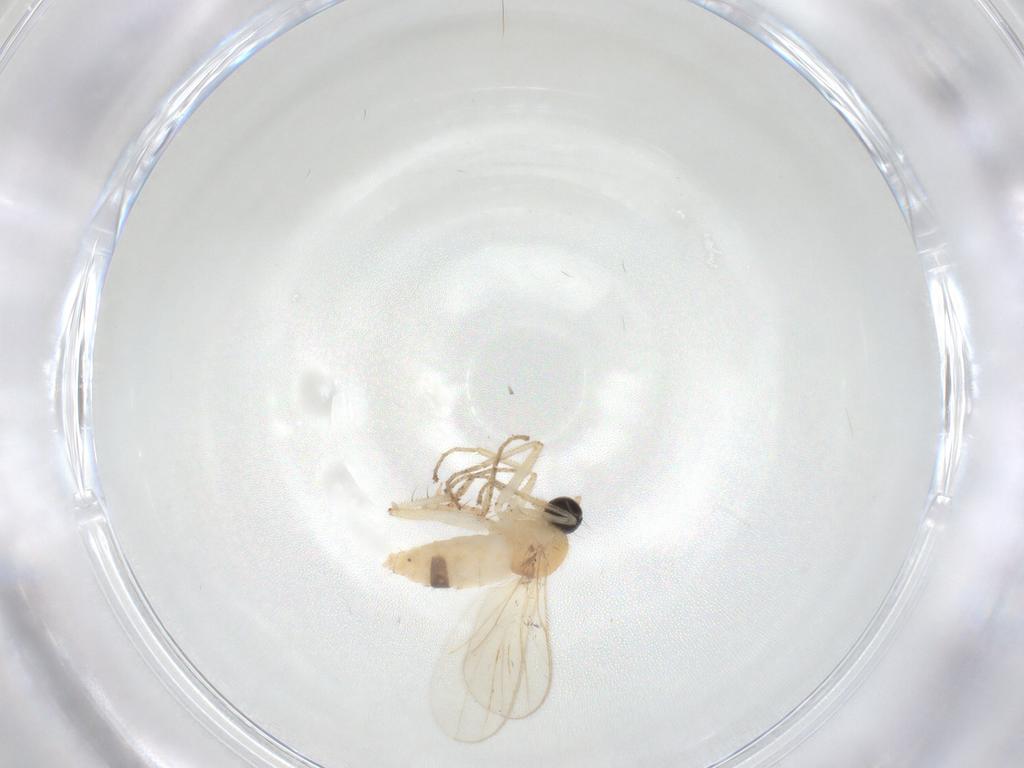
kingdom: Animalia
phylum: Arthropoda
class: Insecta
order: Diptera
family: Hybotidae
